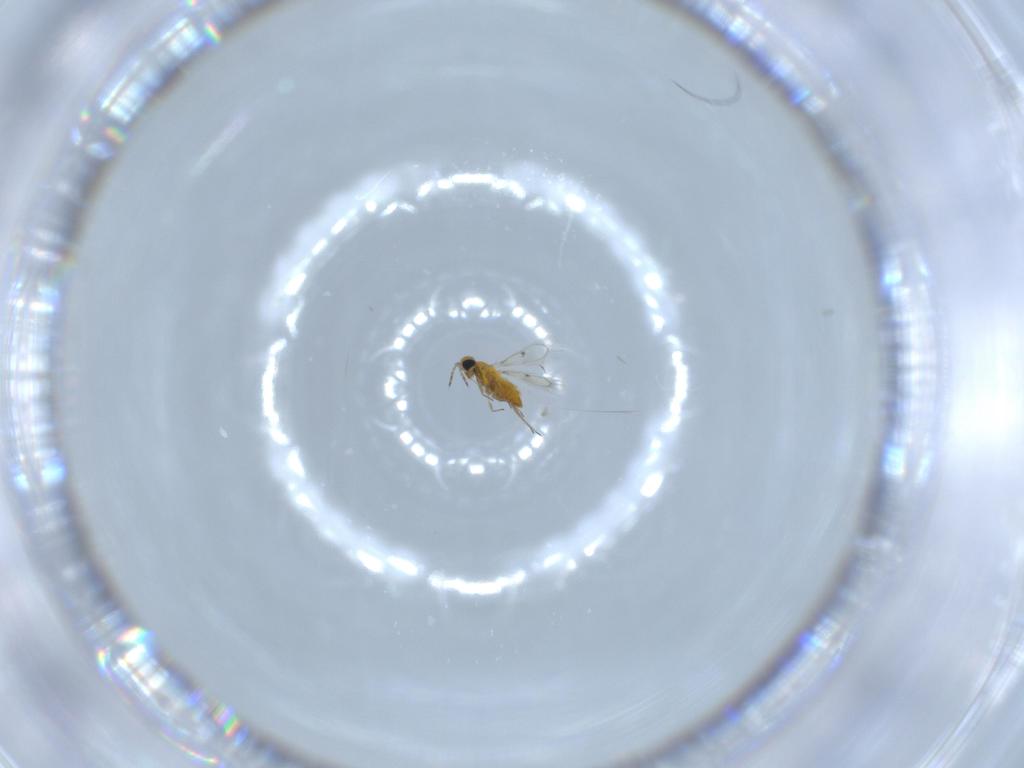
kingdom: Animalia
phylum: Arthropoda
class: Insecta
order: Hymenoptera
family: Trichogrammatidae
